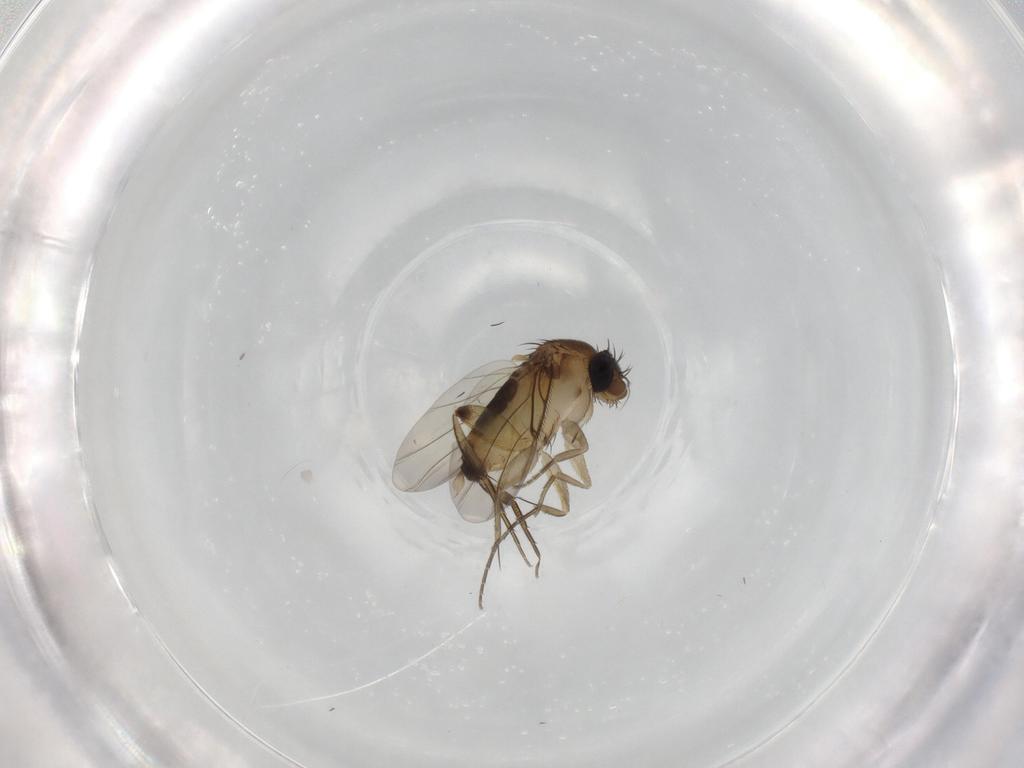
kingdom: Animalia
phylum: Arthropoda
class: Insecta
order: Diptera
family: Phoridae
